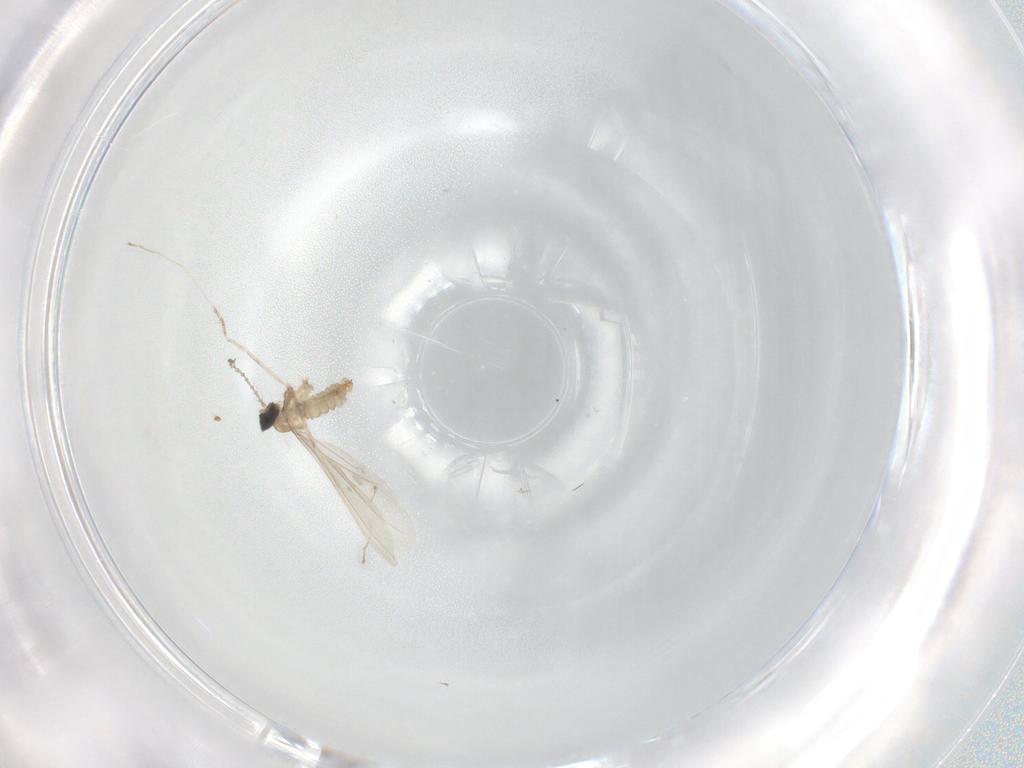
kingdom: Animalia
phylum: Arthropoda
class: Insecta
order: Diptera
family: Cecidomyiidae
